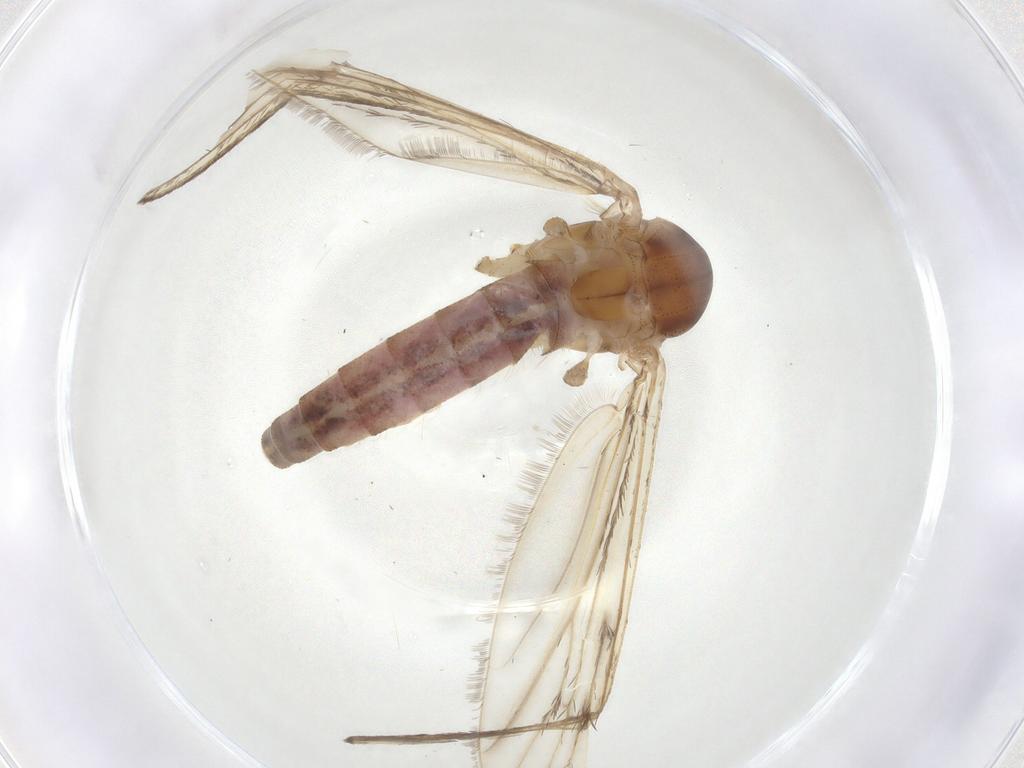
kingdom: Animalia
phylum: Arthropoda
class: Insecta
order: Diptera
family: Culicidae
